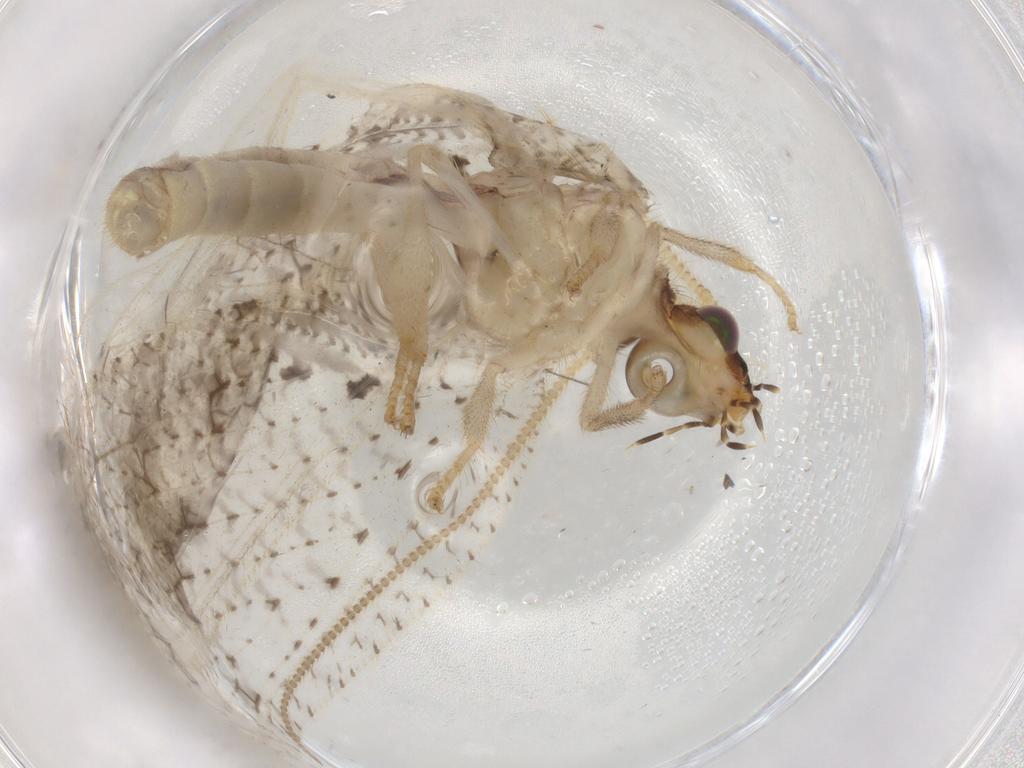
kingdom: Animalia
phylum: Arthropoda
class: Insecta
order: Neuroptera
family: Hemerobiidae
